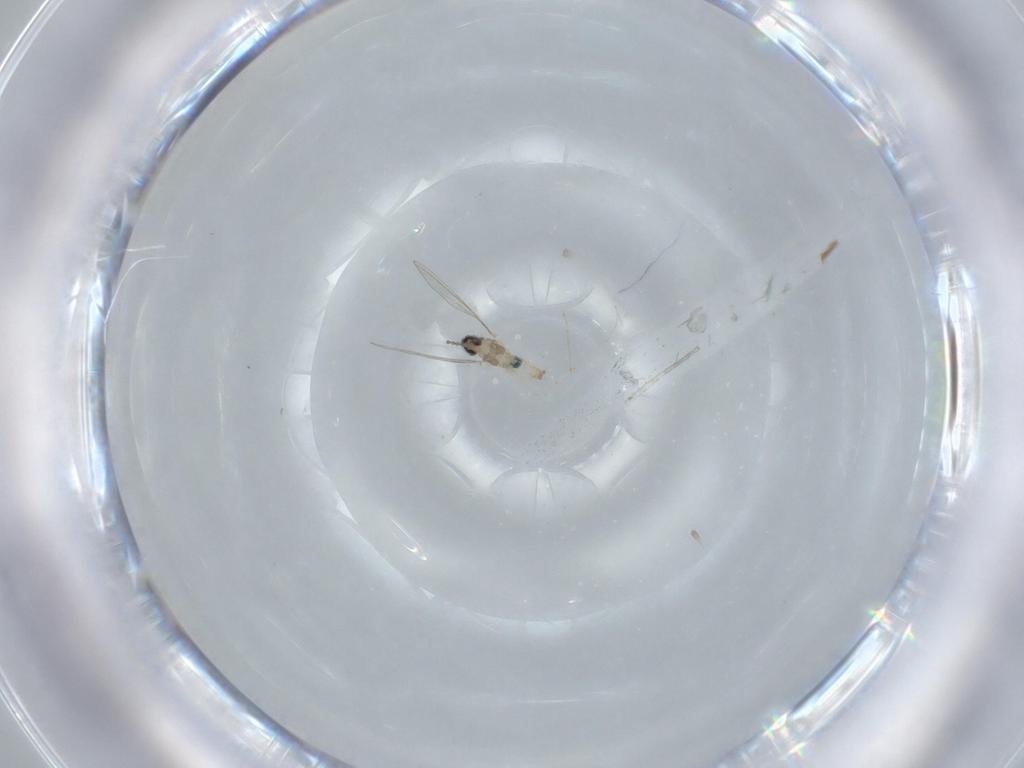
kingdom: Animalia
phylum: Arthropoda
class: Insecta
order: Diptera
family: Cecidomyiidae
